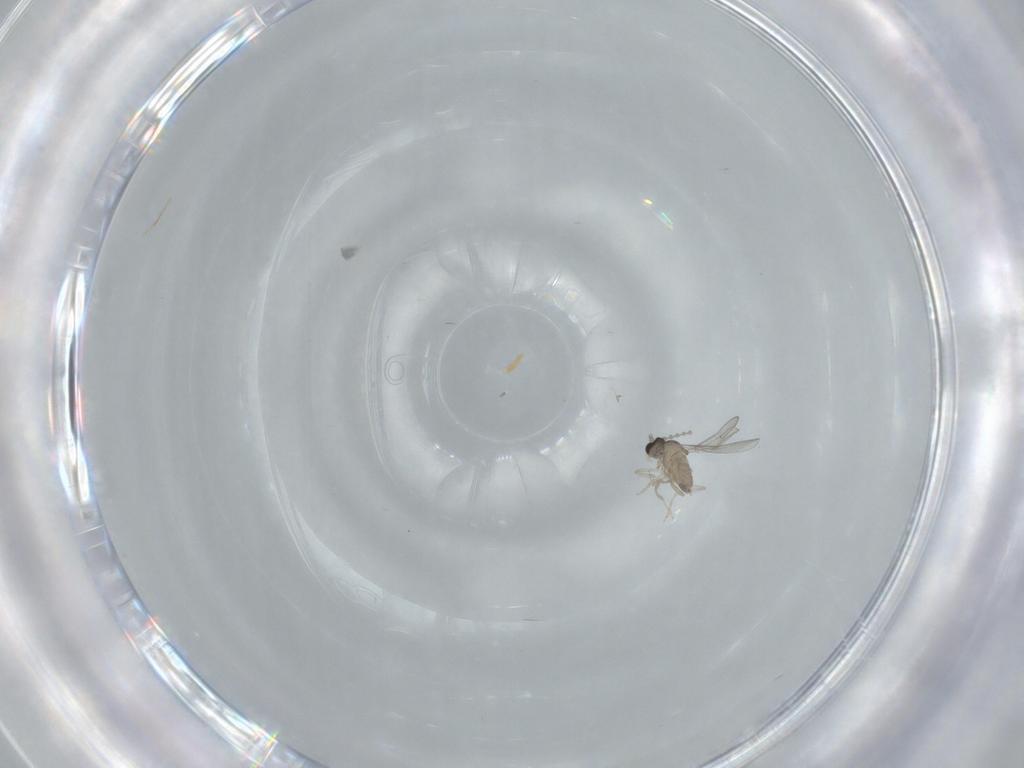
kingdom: Animalia
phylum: Arthropoda
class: Insecta
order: Diptera
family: Cecidomyiidae
